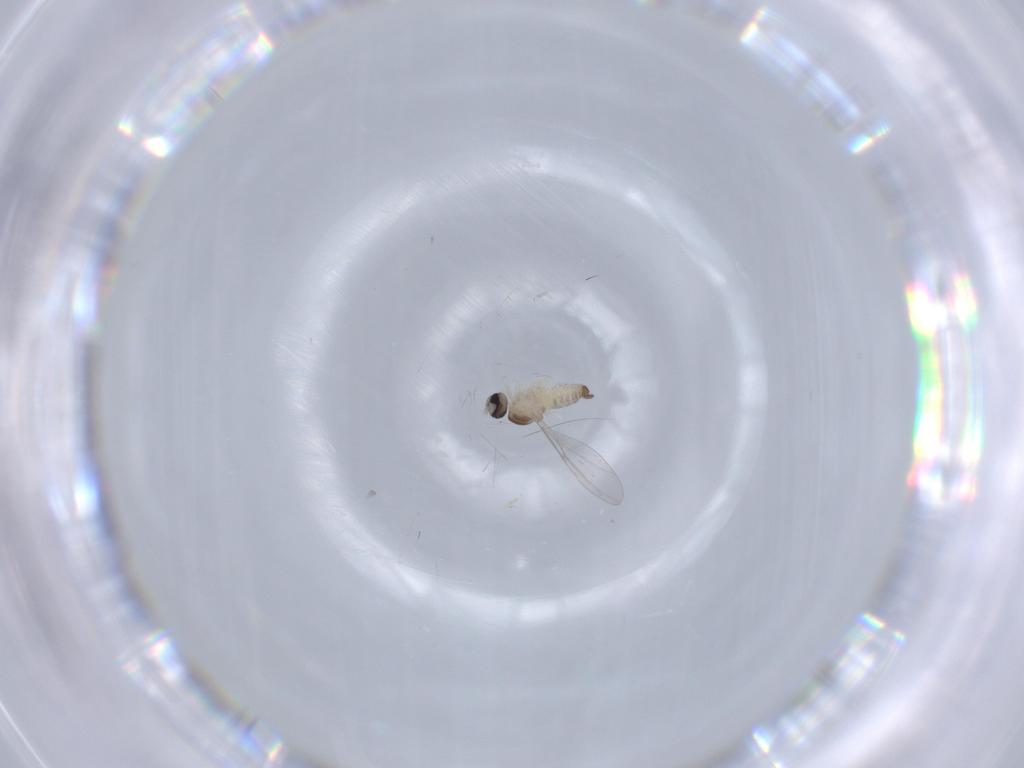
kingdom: Animalia
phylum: Arthropoda
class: Insecta
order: Diptera
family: Cecidomyiidae
